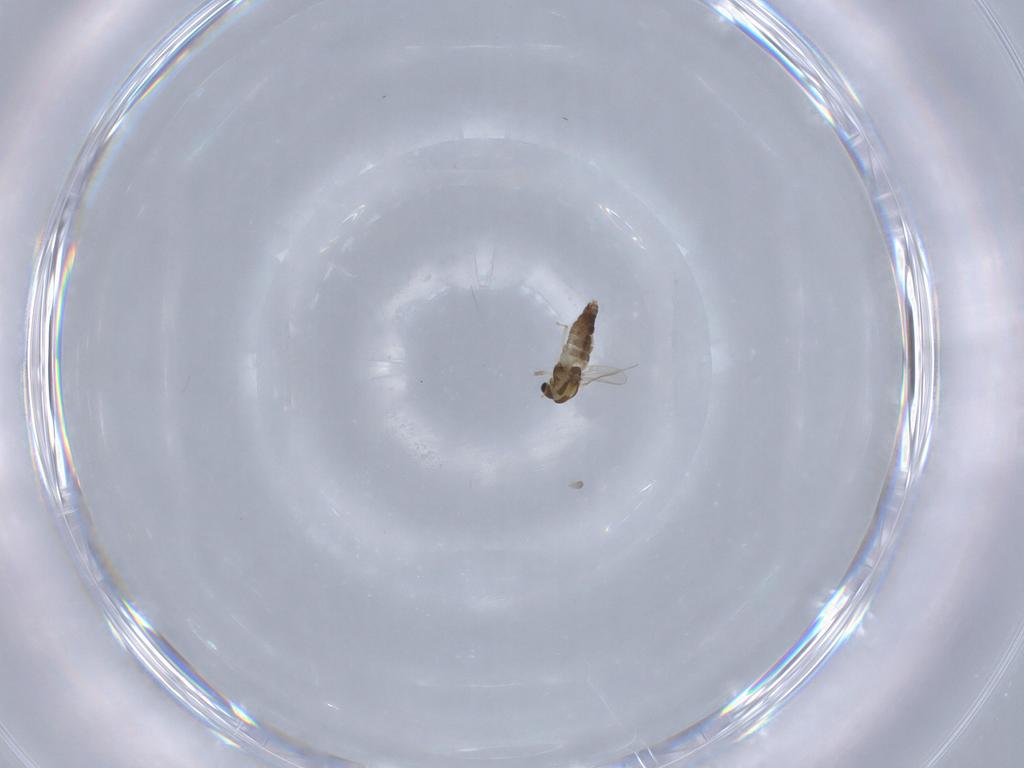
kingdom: Animalia
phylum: Arthropoda
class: Insecta
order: Diptera
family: Chironomidae
